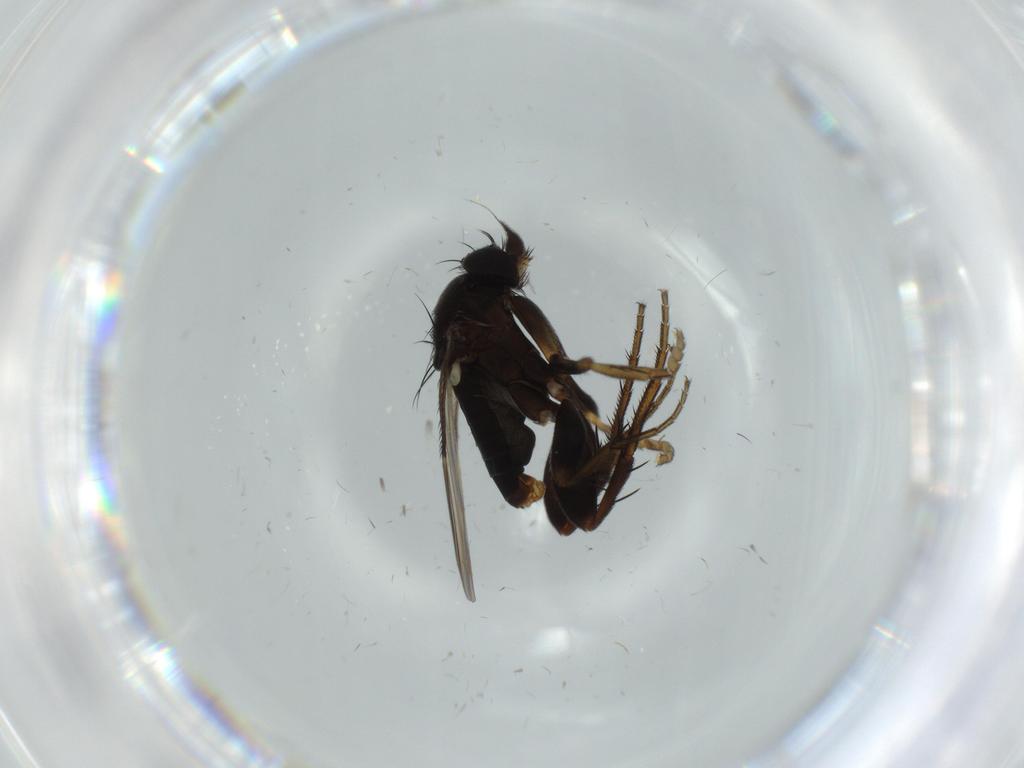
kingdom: Animalia
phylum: Arthropoda
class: Insecta
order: Diptera
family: Phoridae
